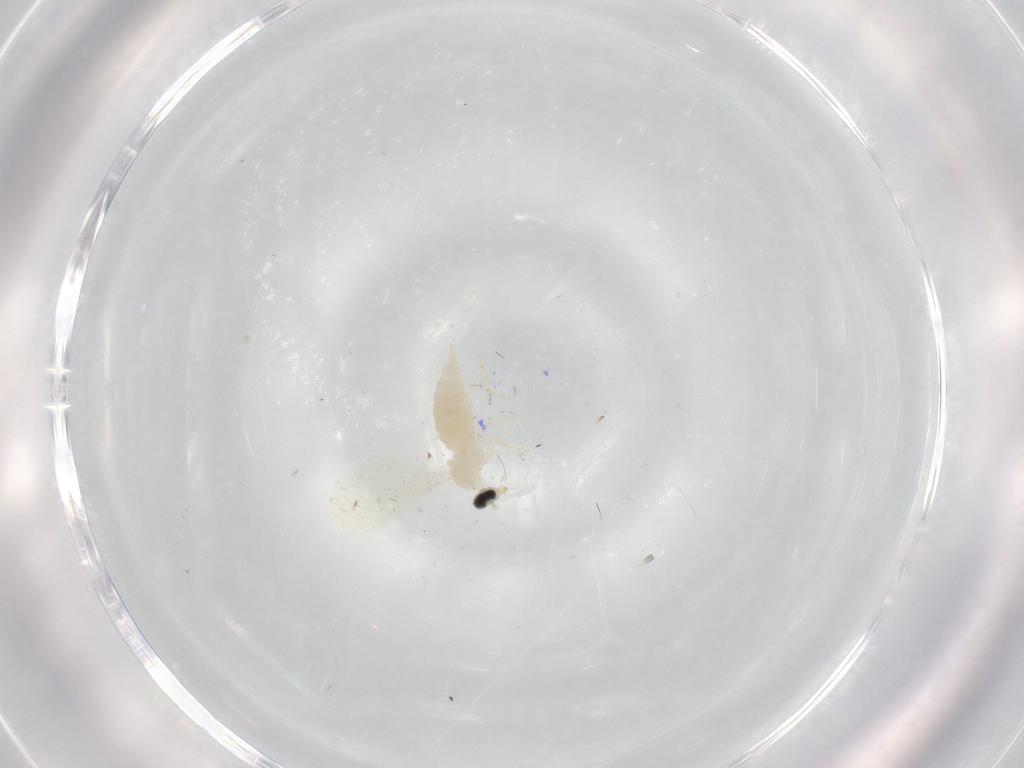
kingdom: Animalia
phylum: Arthropoda
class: Insecta
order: Diptera
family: Cecidomyiidae
